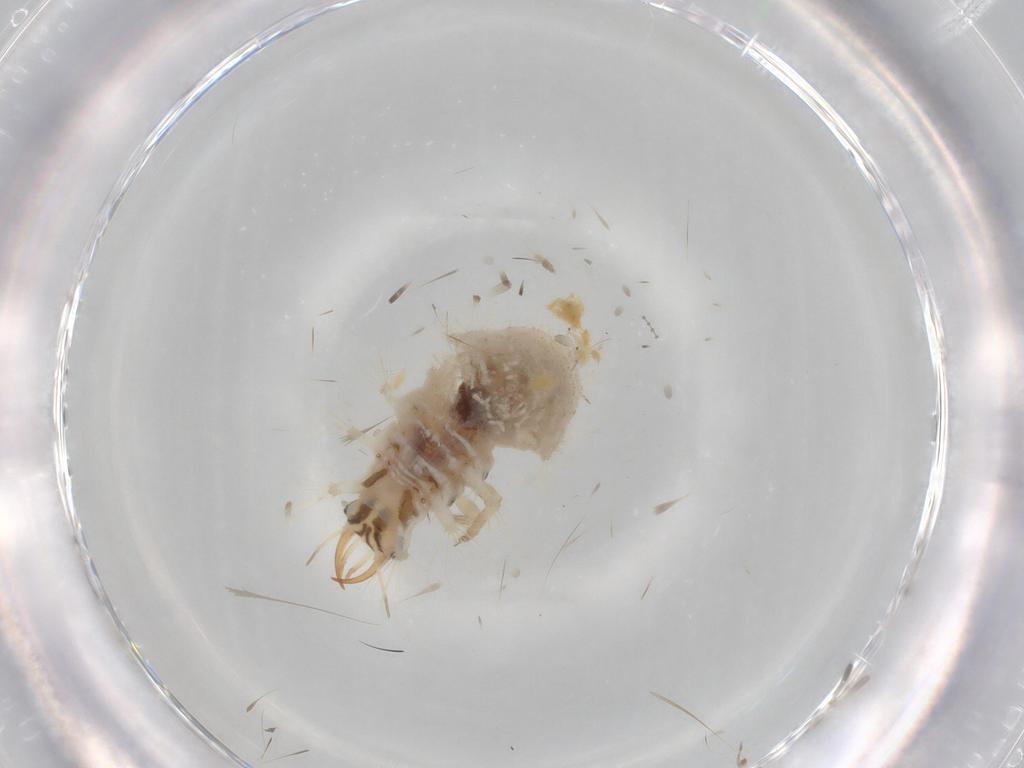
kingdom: Animalia
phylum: Arthropoda
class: Insecta
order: Neuroptera
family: Chrysopidae
